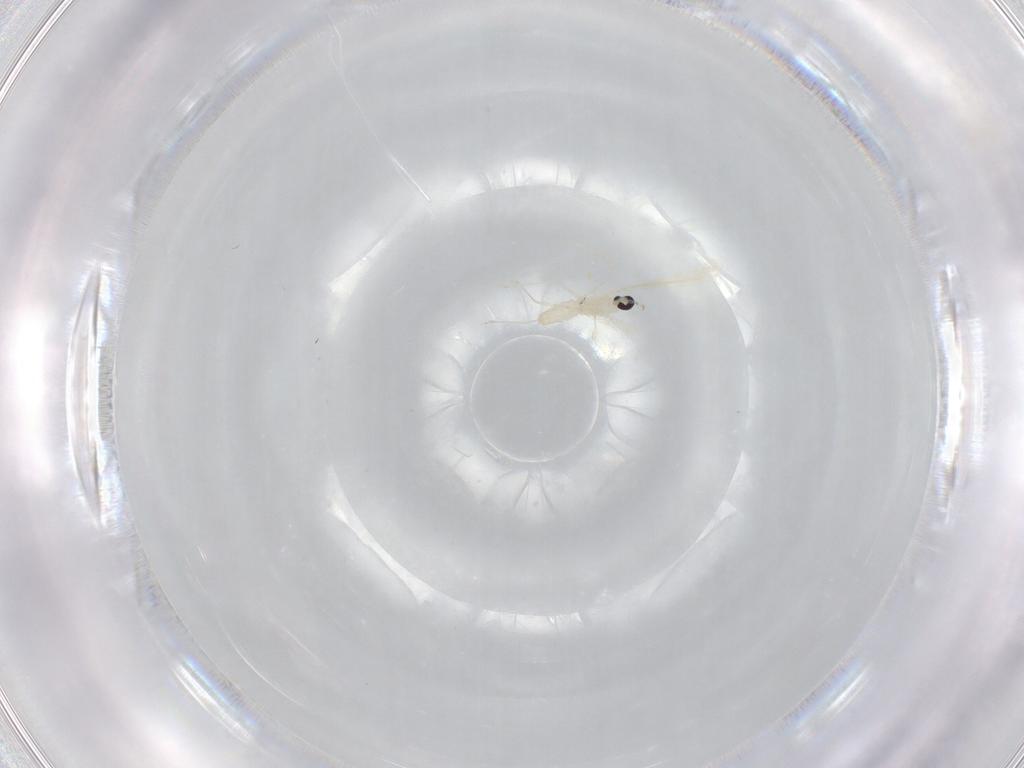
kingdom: Animalia
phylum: Arthropoda
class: Insecta
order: Diptera
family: Cecidomyiidae
